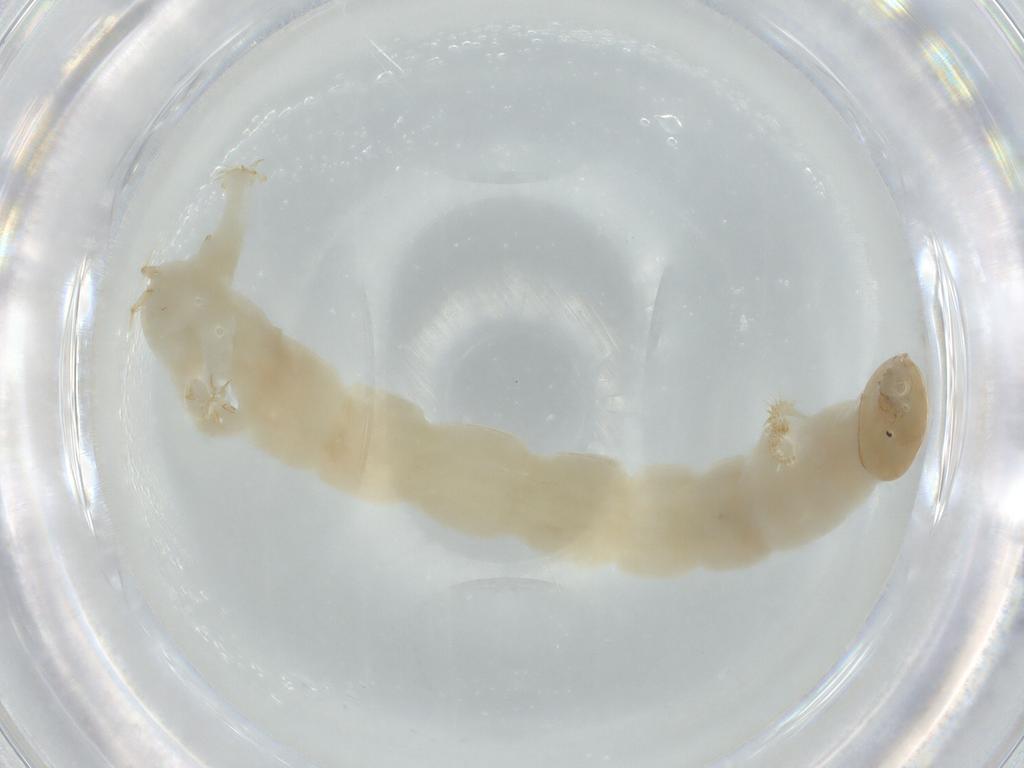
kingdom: Animalia
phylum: Arthropoda
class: Insecta
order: Diptera
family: Chironomidae
